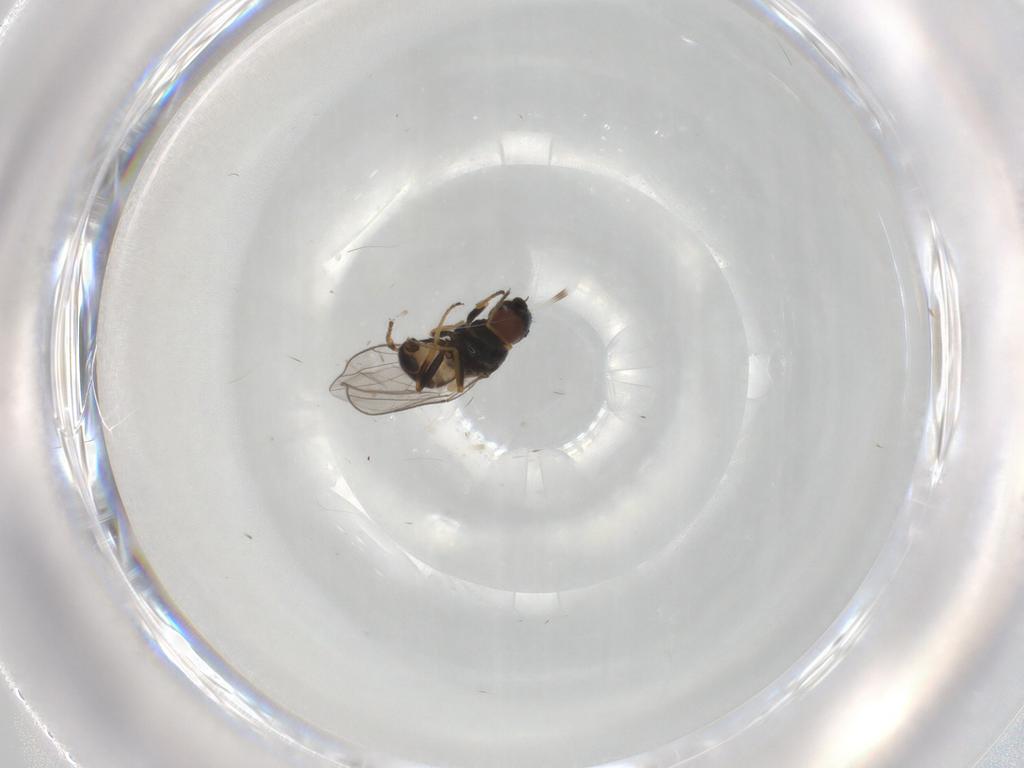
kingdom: Animalia
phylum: Arthropoda
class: Insecta
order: Diptera
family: Chloropidae
